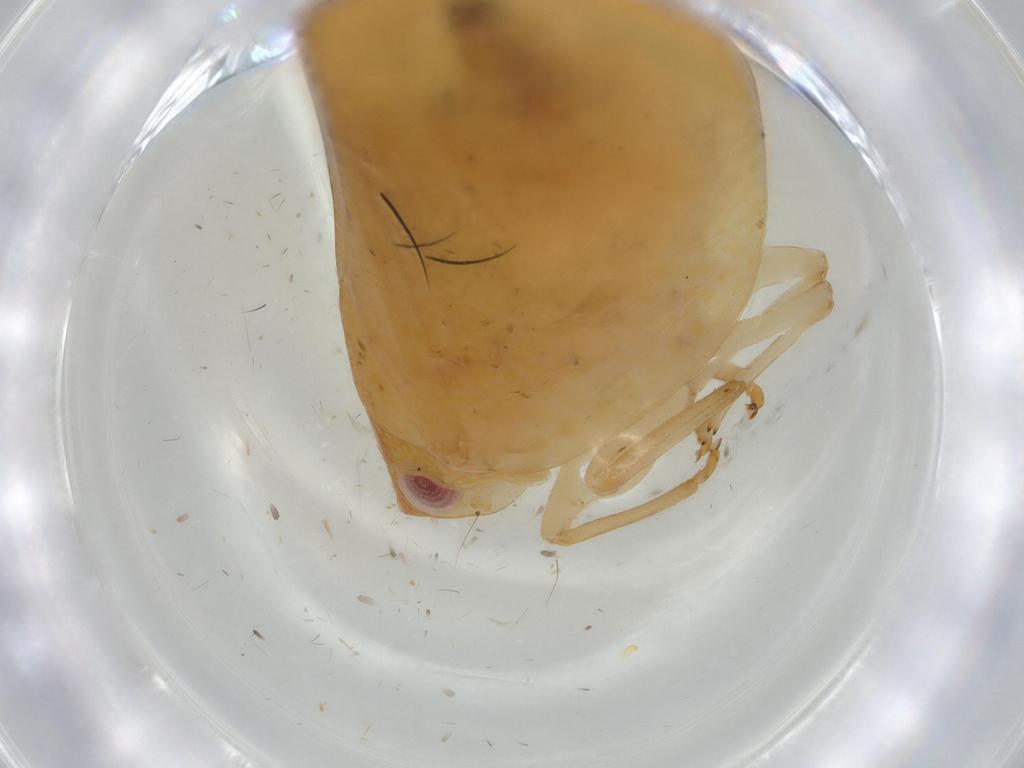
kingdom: Animalia
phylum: Arthropoda
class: Insecta
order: Hemiptera
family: Acanaloniidae
